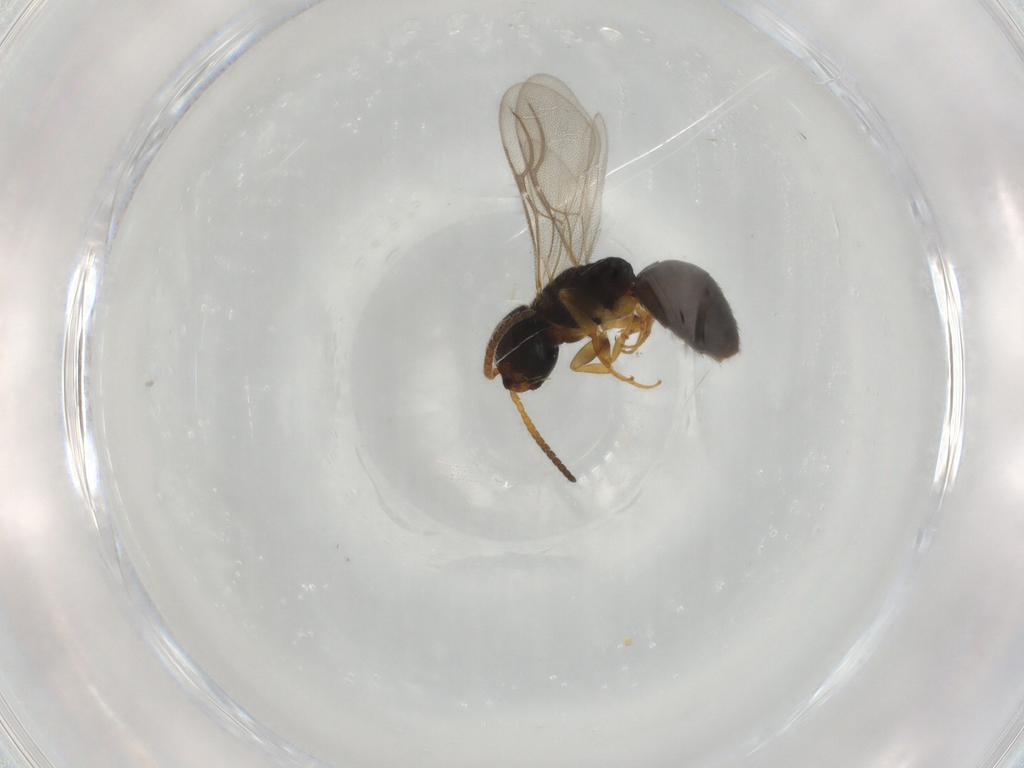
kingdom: Animalia
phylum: Arthropoda
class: Insecta
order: Hymenoptera
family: Bethylidae
